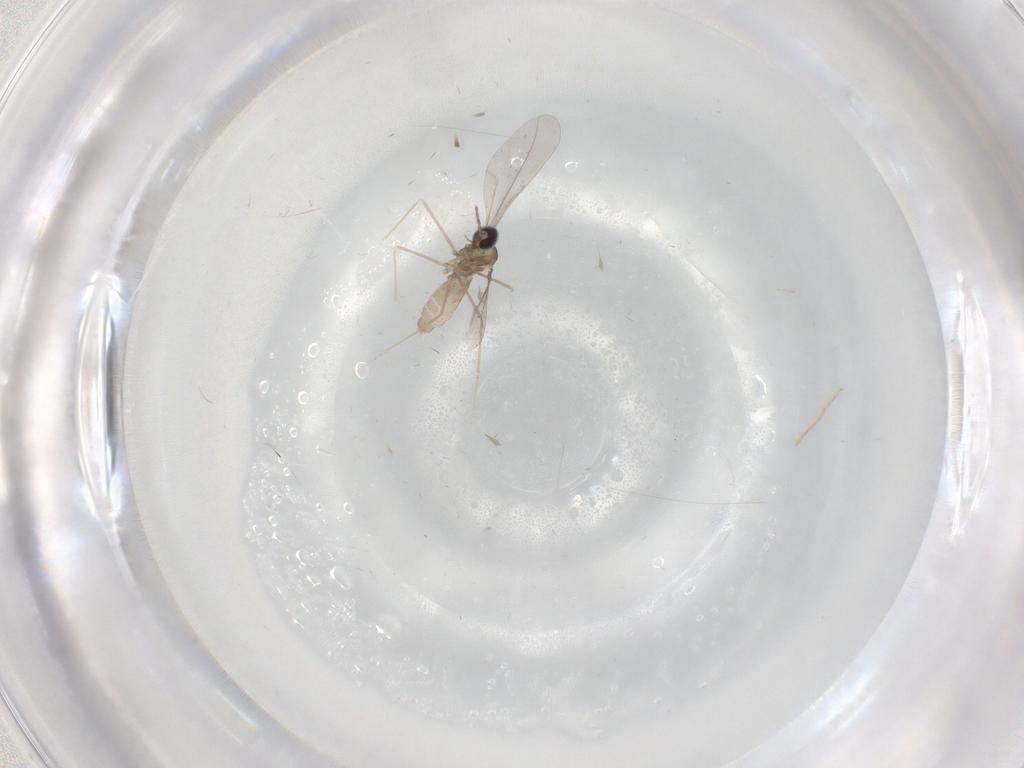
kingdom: Animalia
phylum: Arthropoda
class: Insecta
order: Diptera
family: Cecidomyiidae
